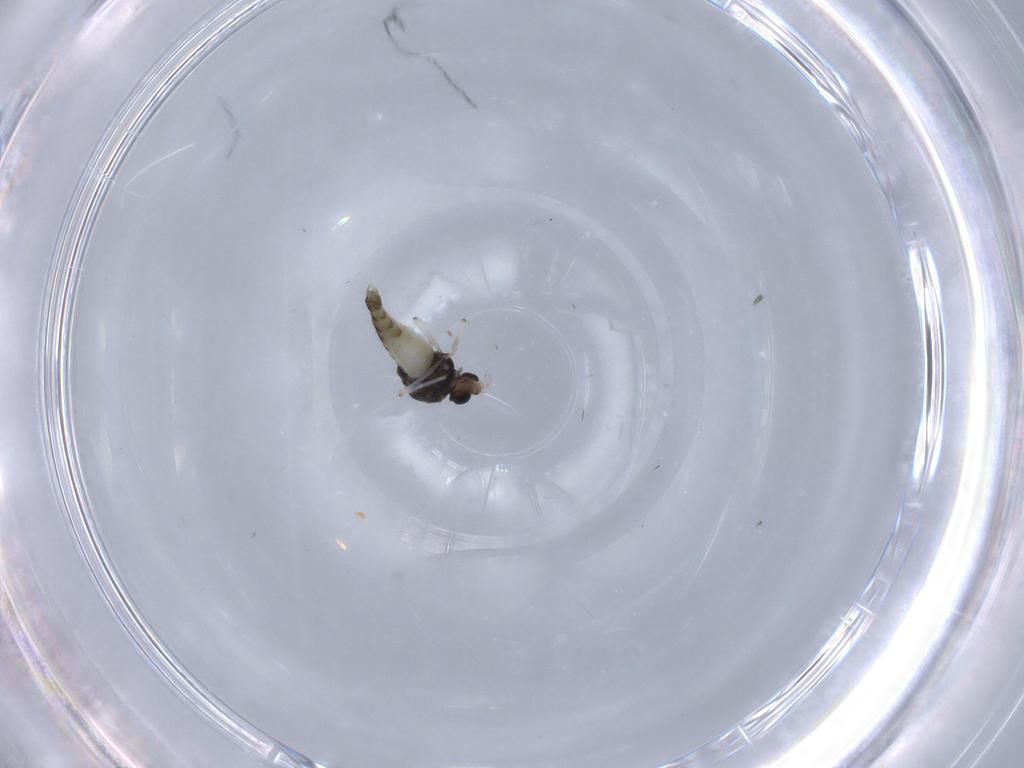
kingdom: Animalia
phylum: Arthropoda
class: Insecta
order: Diptera
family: Chironomidae
